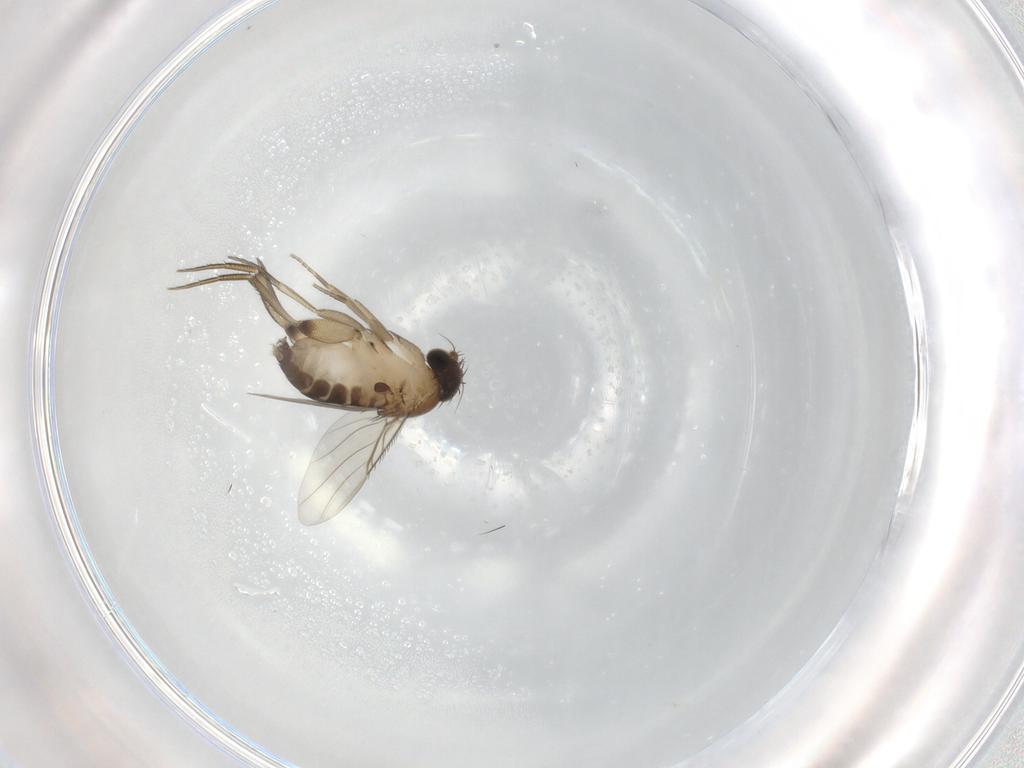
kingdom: Animalia
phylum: Arthropoda
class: Insecta
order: Diptera
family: Phoridae
